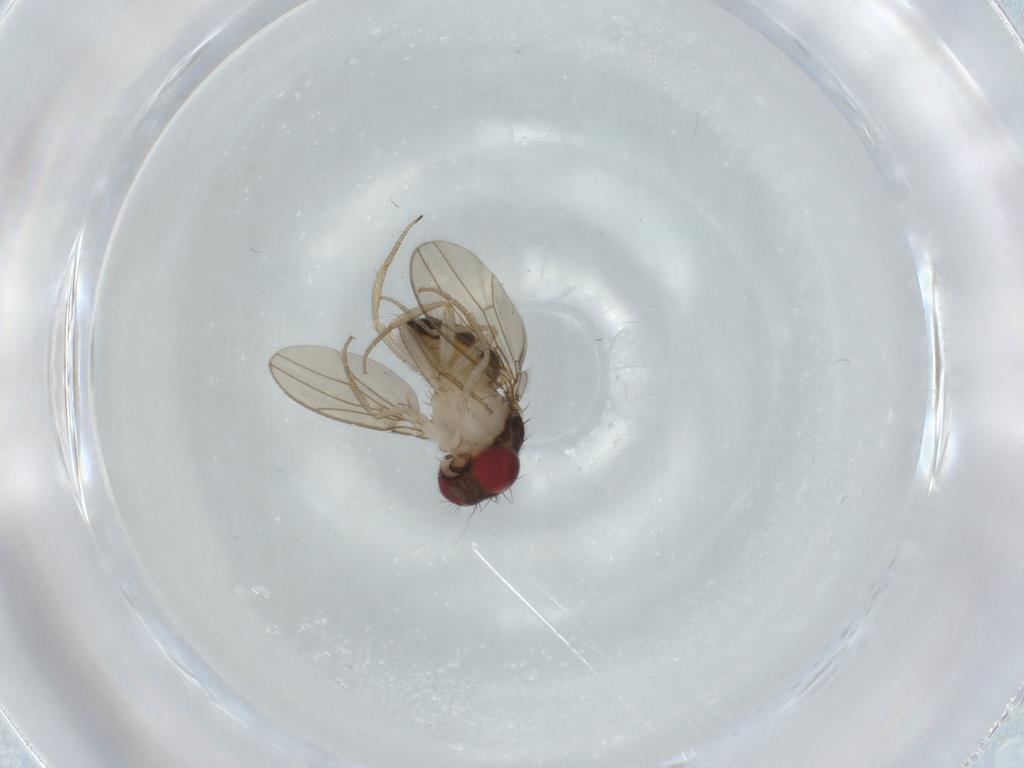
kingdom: Animalia
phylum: Arthropoda
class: Insecta
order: Diptera
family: Drosophilidae
